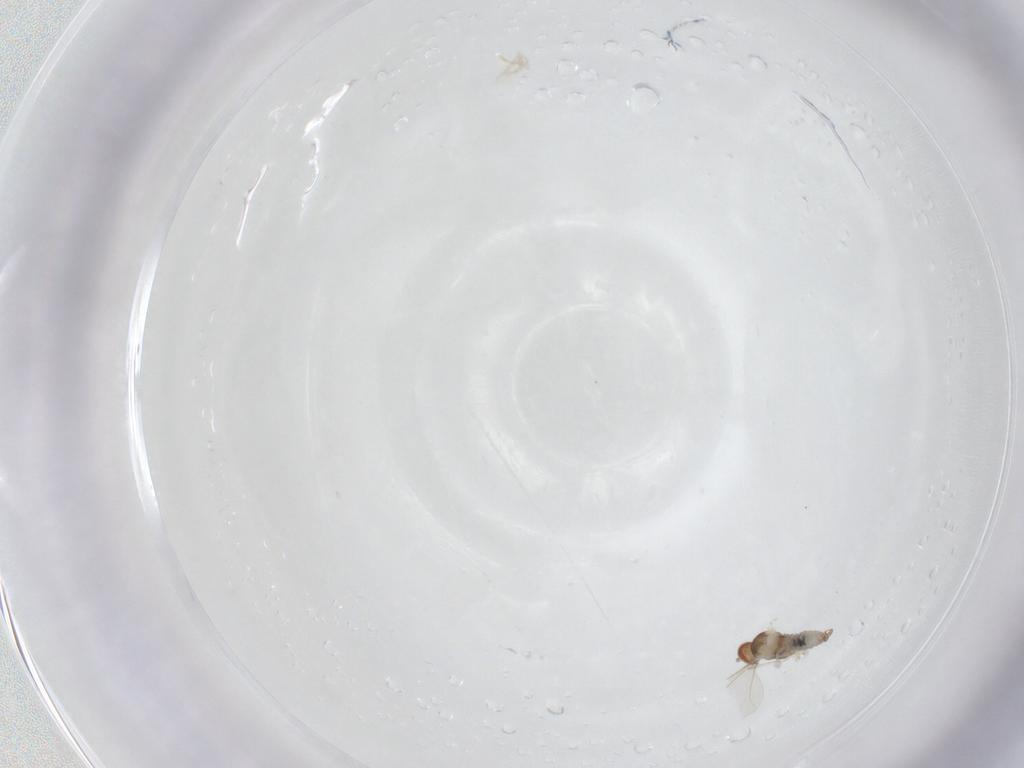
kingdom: Animalia
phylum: Arthropoda
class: Insecta
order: Diptera
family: Cecidomyiidae
